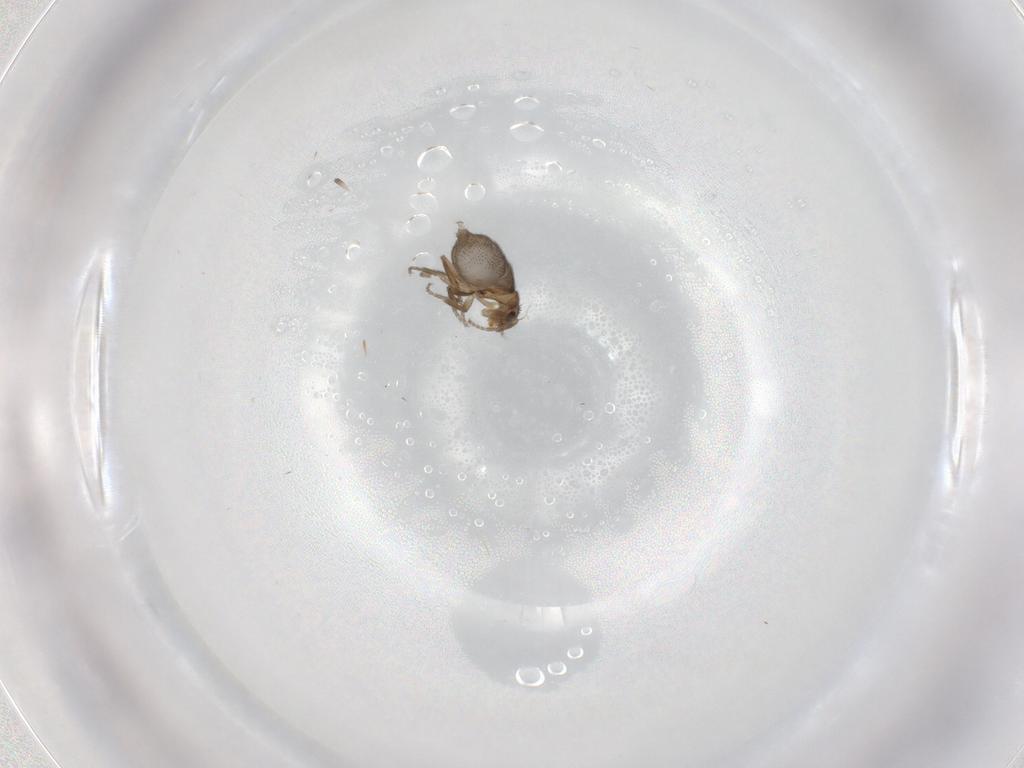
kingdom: Animalia
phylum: Arthropoda
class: Insecta
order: Diptera
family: Phoridae
